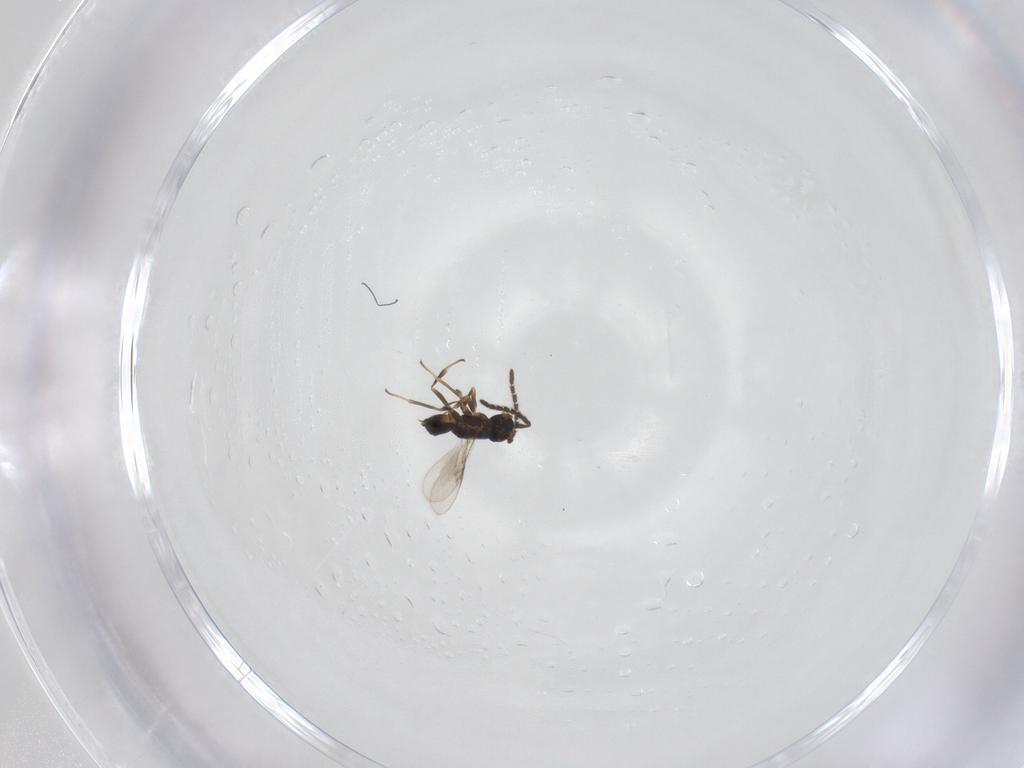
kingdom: Animalia
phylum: Arthropoda
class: Insecta
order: Hymenoptera
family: Encyrtidae
